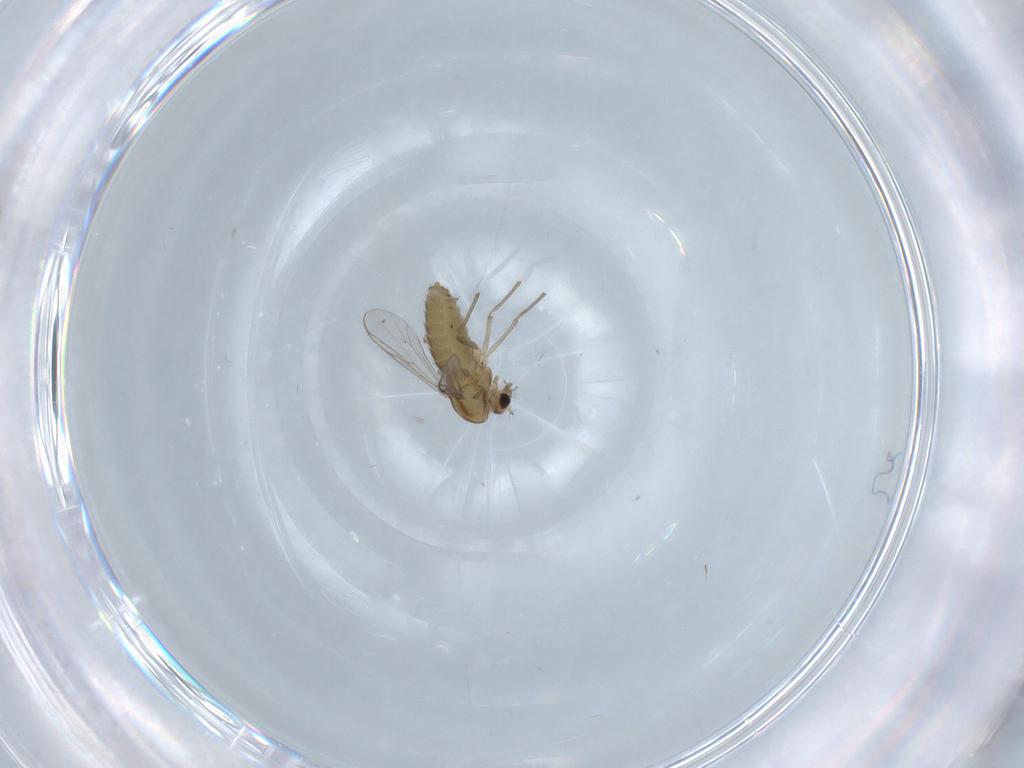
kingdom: Animalia
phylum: Arthropoda
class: Insecta
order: Diptera
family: Chironomidae
